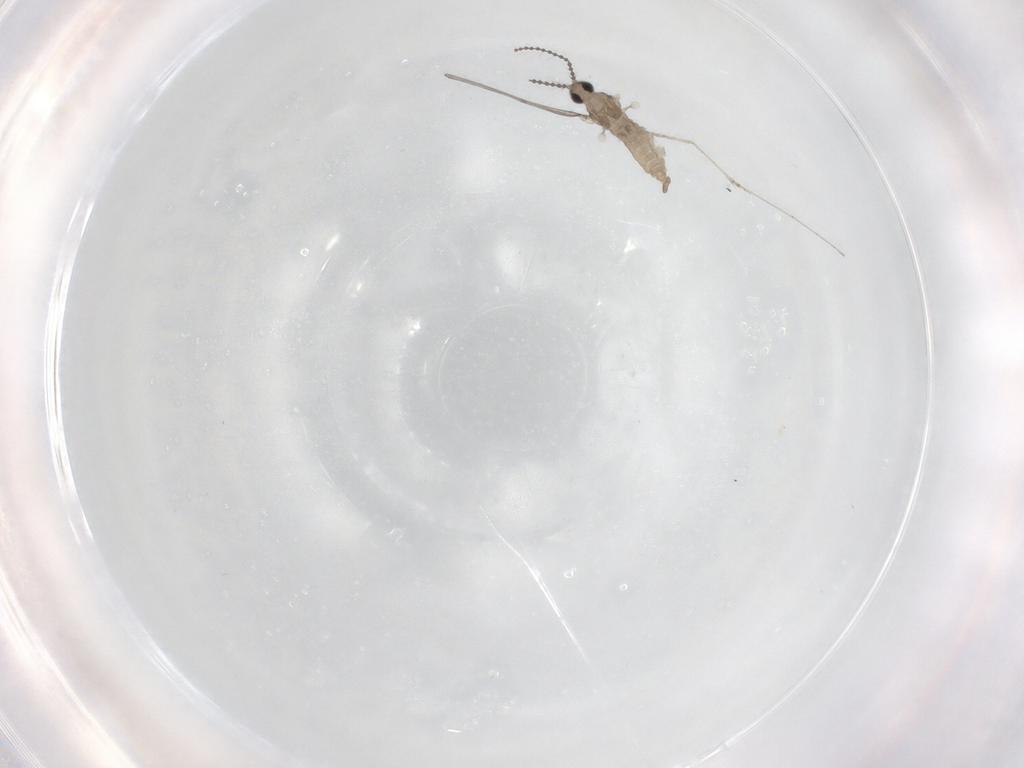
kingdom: Animalia
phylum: Arthropoda
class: Insecta
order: Diptera
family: Cecidomyiidae
